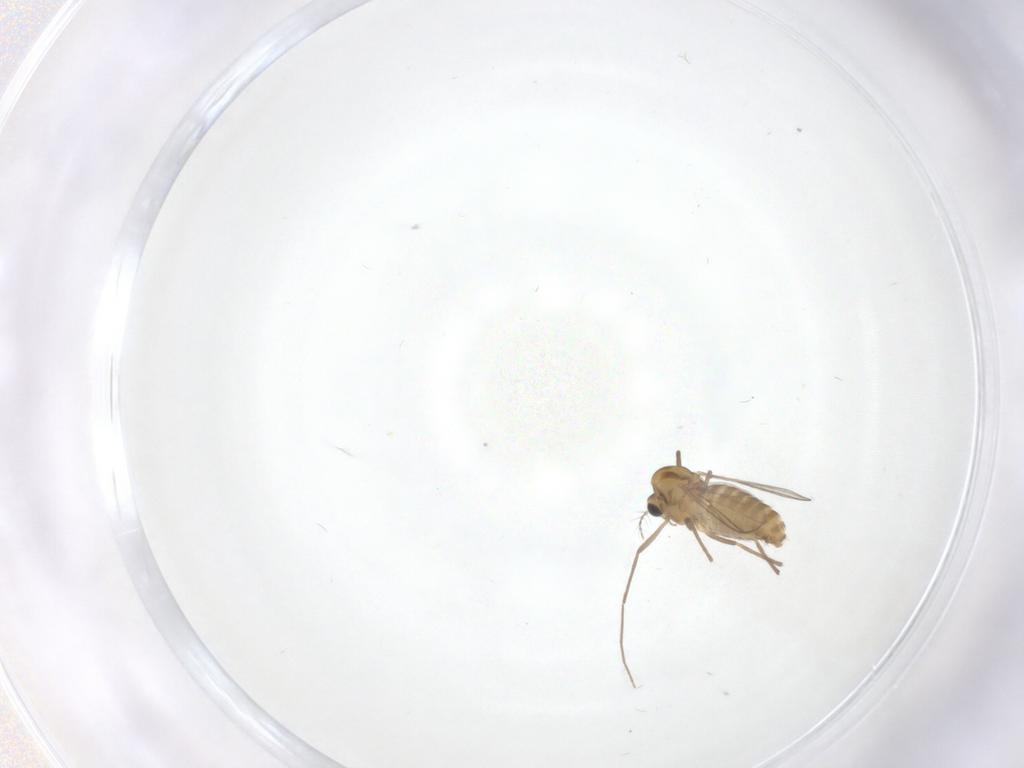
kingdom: Animalia
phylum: Arthropoda
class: Insecta
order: Diptera
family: Chironomidae
